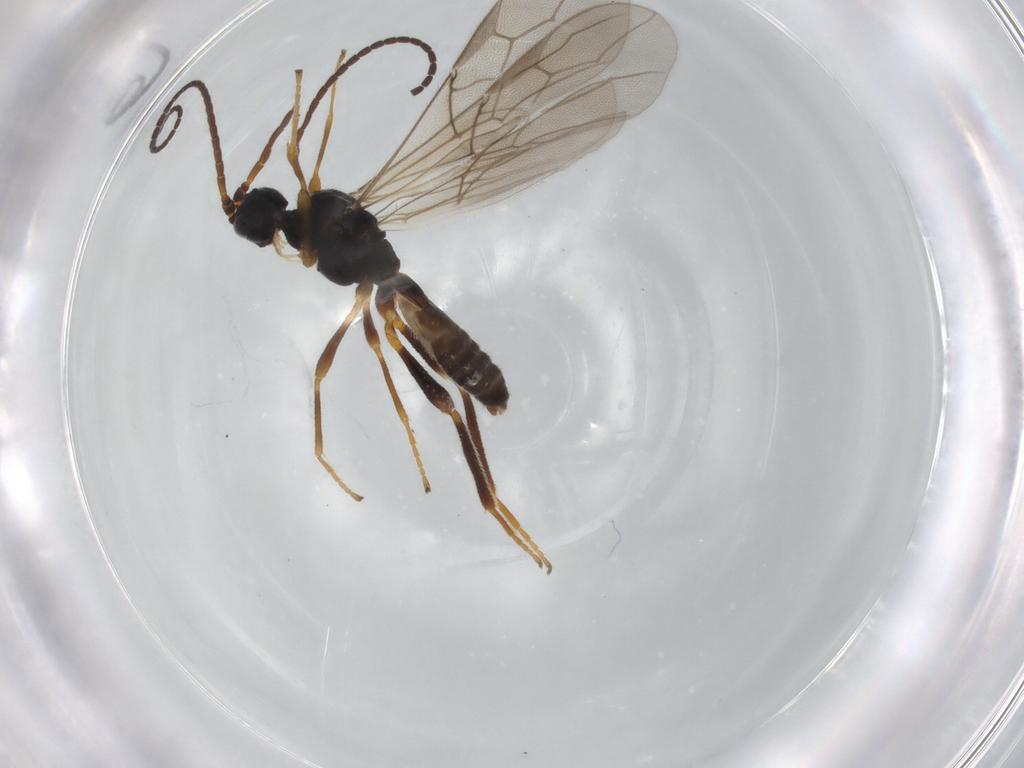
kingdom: Animalia
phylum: Arthropoda
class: Insecta
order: Hymenoptera
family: Braconidae
